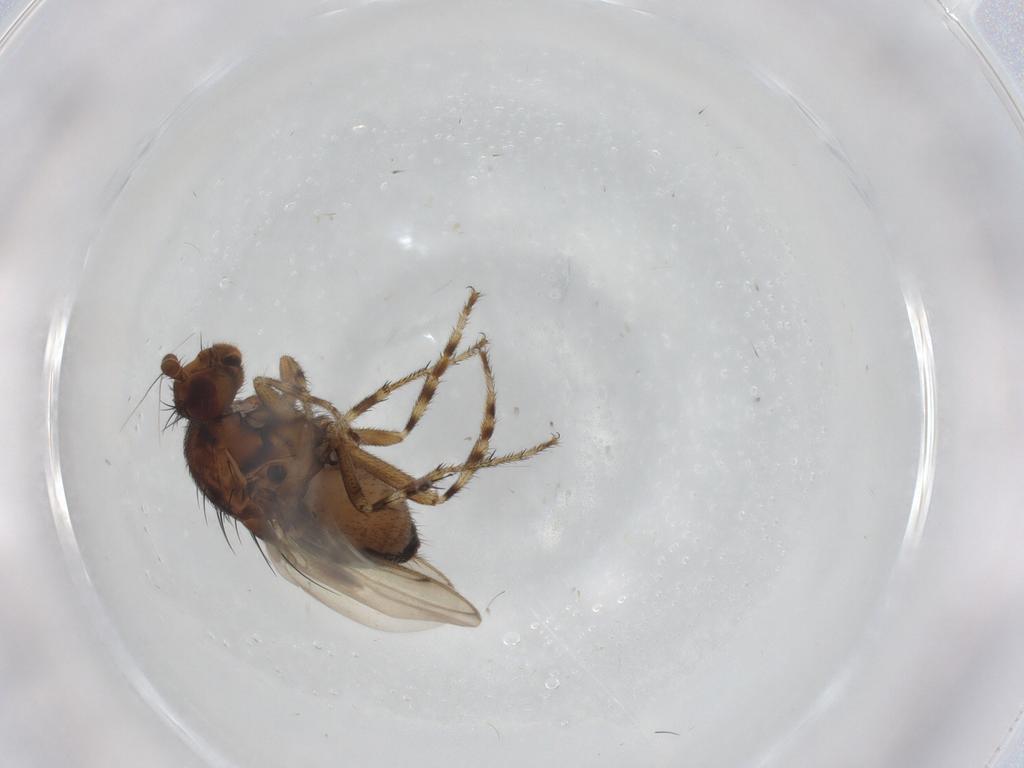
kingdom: Animalia
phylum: Arthropoda
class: Insecta
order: Diptera
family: Sphaeroceridae
